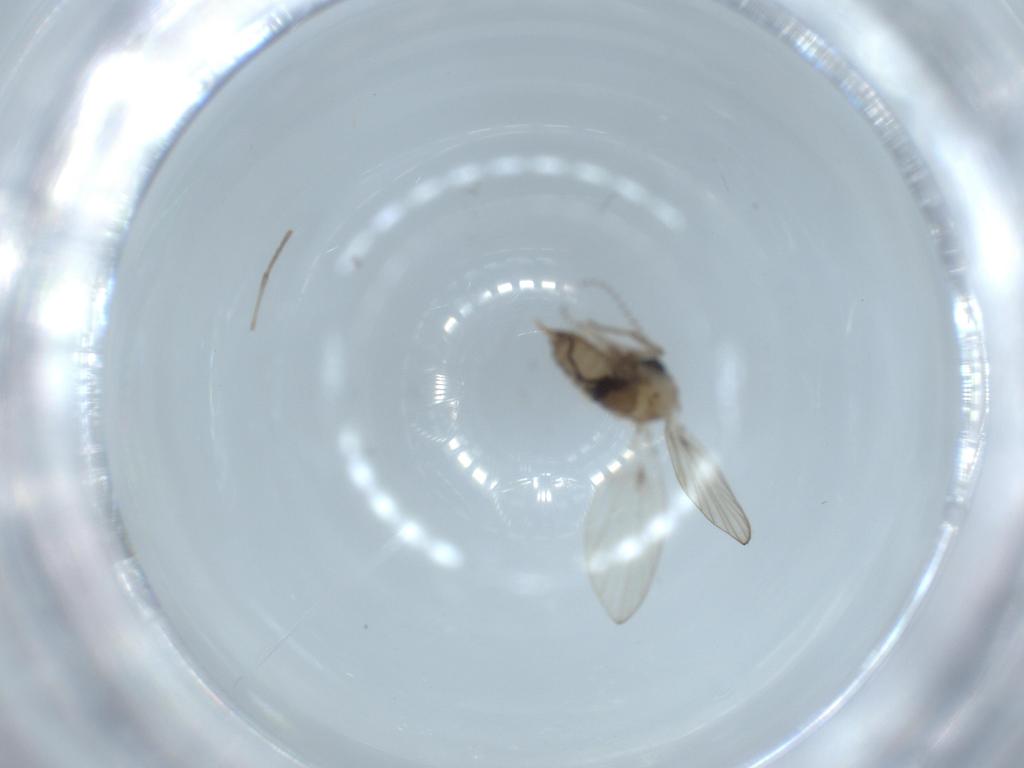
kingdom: Animalia
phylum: Arthropoda
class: Insecta
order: Diptera
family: Psychodidae
